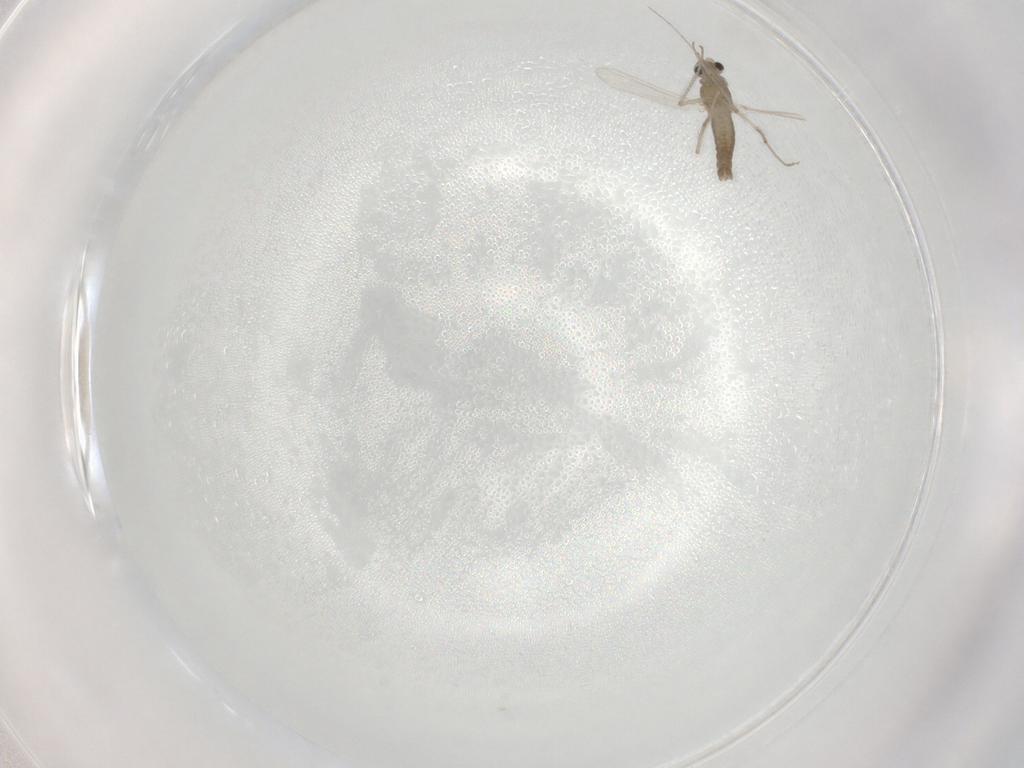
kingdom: Animalia
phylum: Arthropoda
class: Insecta
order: Diptera
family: Chironomidae
